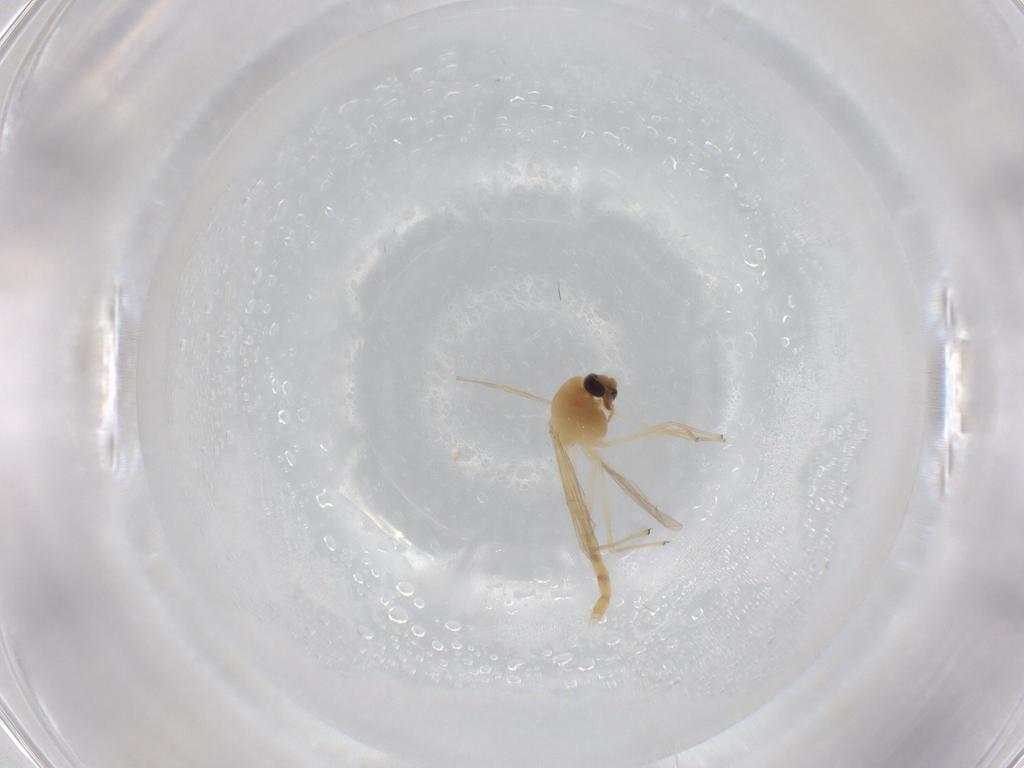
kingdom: Animalia
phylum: Arthropoda
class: Insecta
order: Diptera
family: Chironomidae
